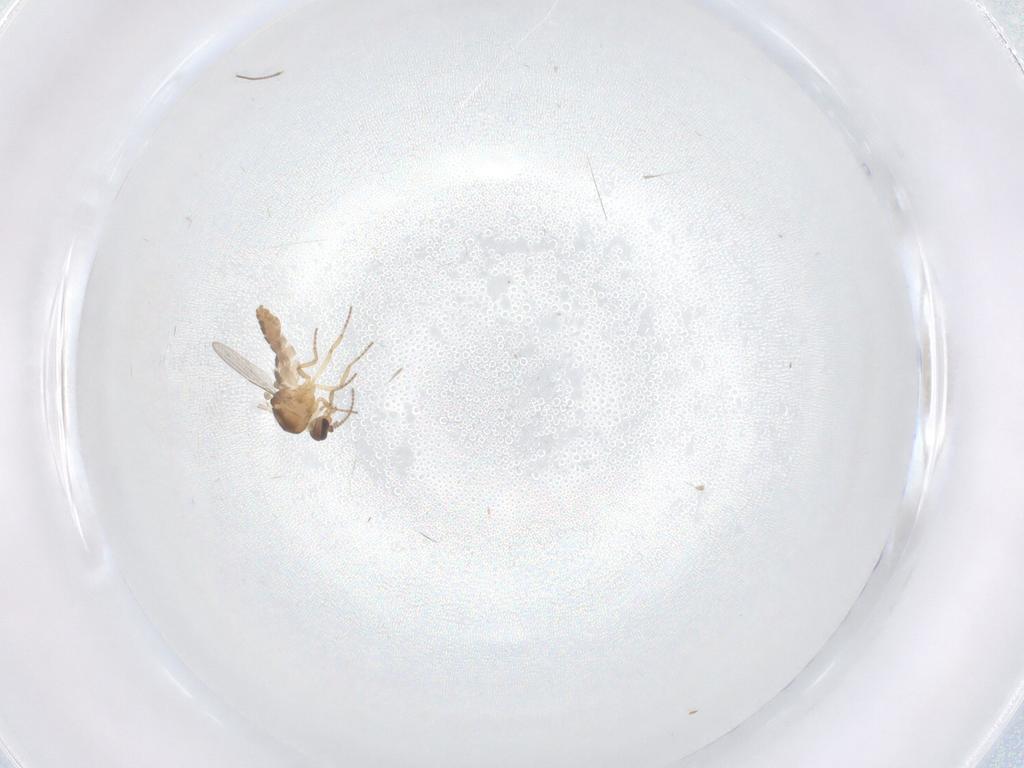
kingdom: Animalia
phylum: Arthropoda
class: Insecta
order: Diptera
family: Ceratopogonidae
